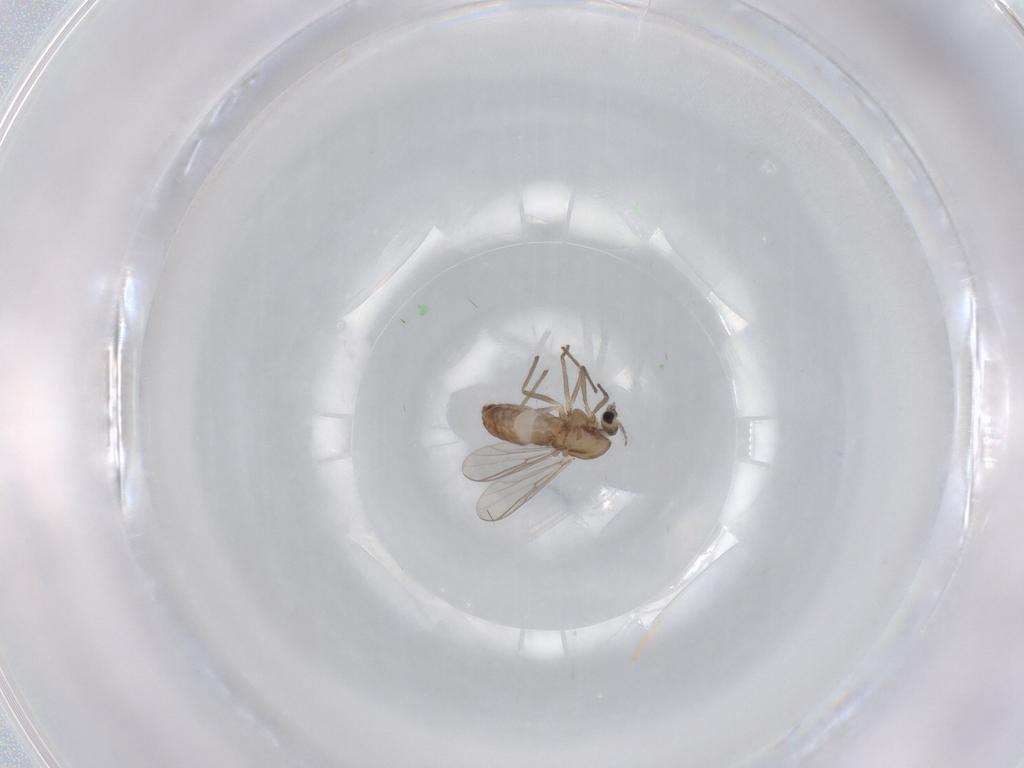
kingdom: Animalia
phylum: Arthropoda
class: Insecta
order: Diptera
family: Chironomidae
